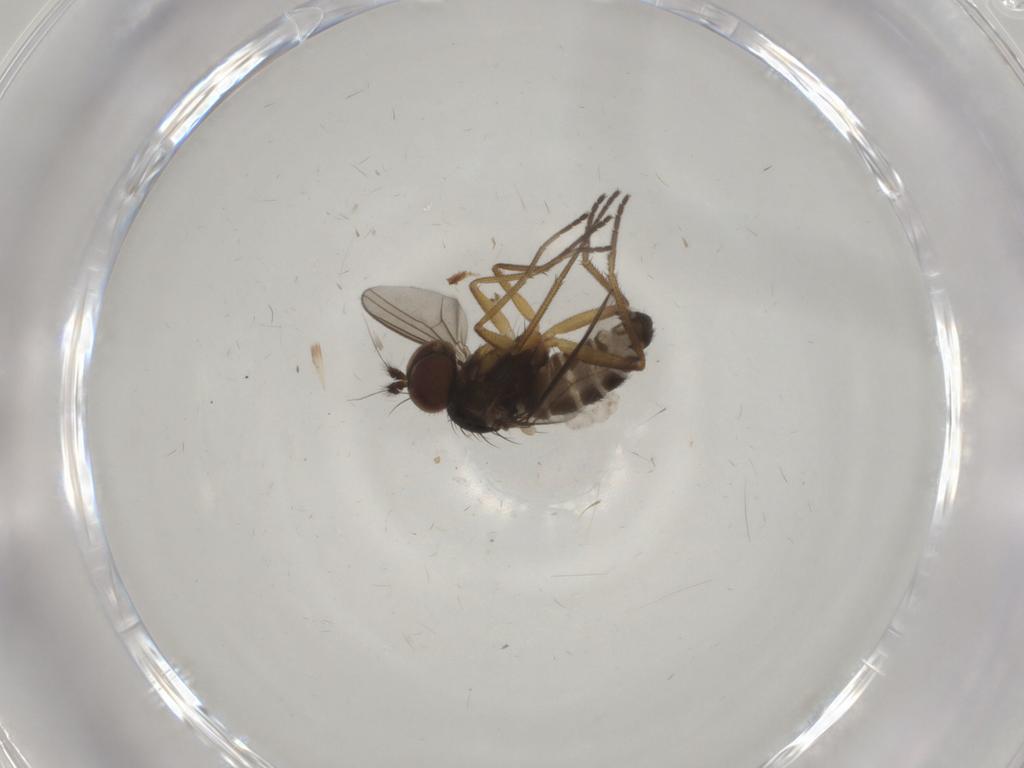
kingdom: Animalia
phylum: Arthropoda
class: Insecta
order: Diptera
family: Dolichopodidae
